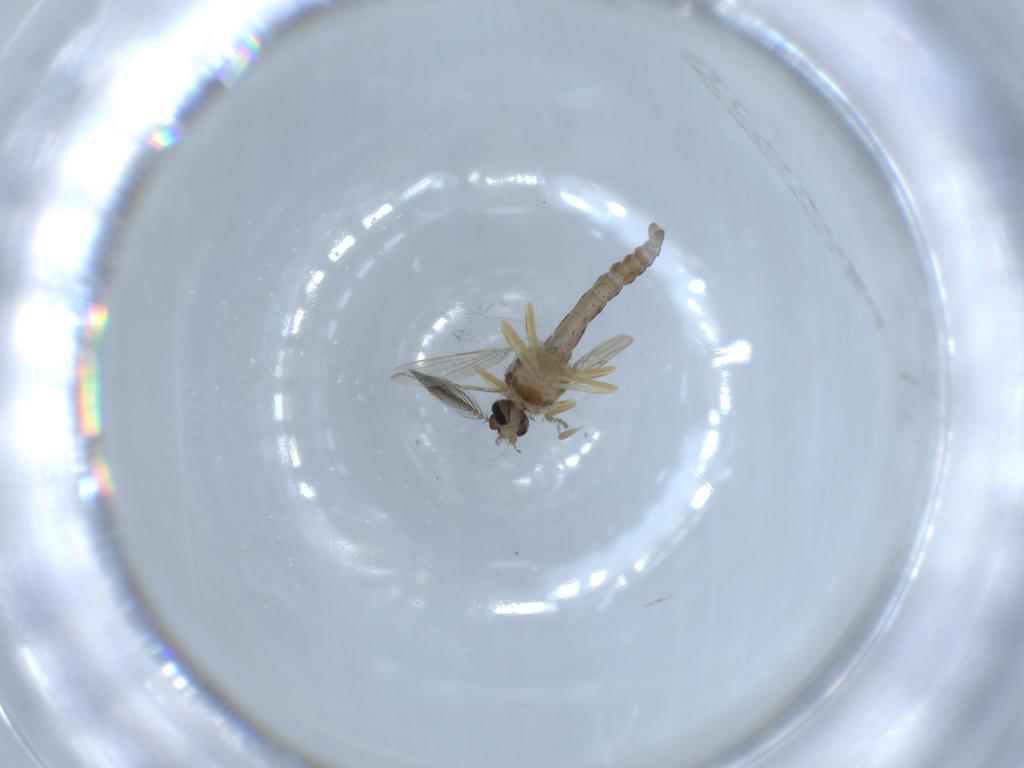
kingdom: Animalia
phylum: Arthropoda
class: Insecta
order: Diptera
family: Ceratopogonidae
